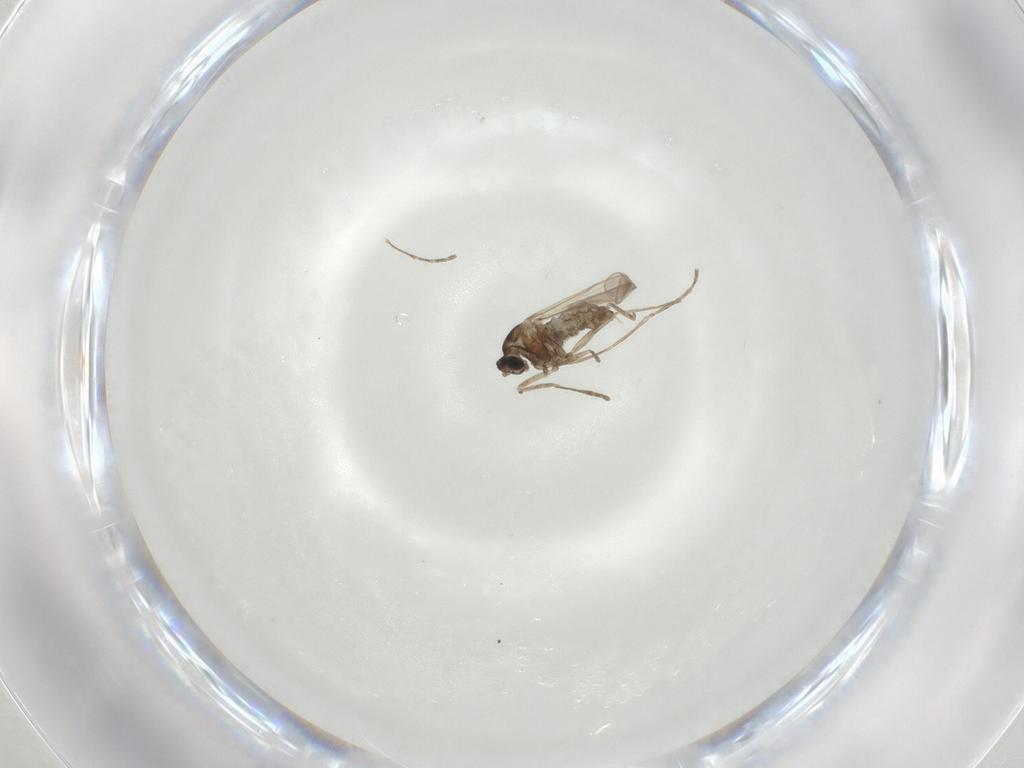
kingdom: Animalia
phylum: Arthropoda
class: Insecta
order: Diptera
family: Cecidomyiidae
